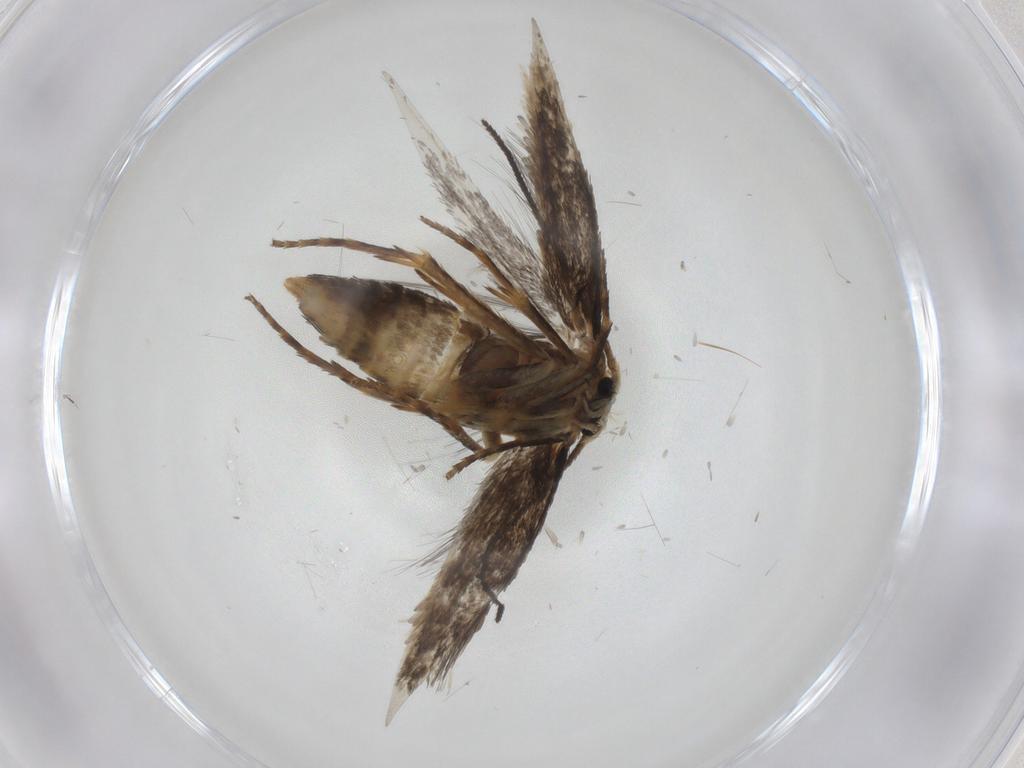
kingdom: Animalia
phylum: Arthropoda
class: Insecta
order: Lepidoptera
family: Nepticulidae
